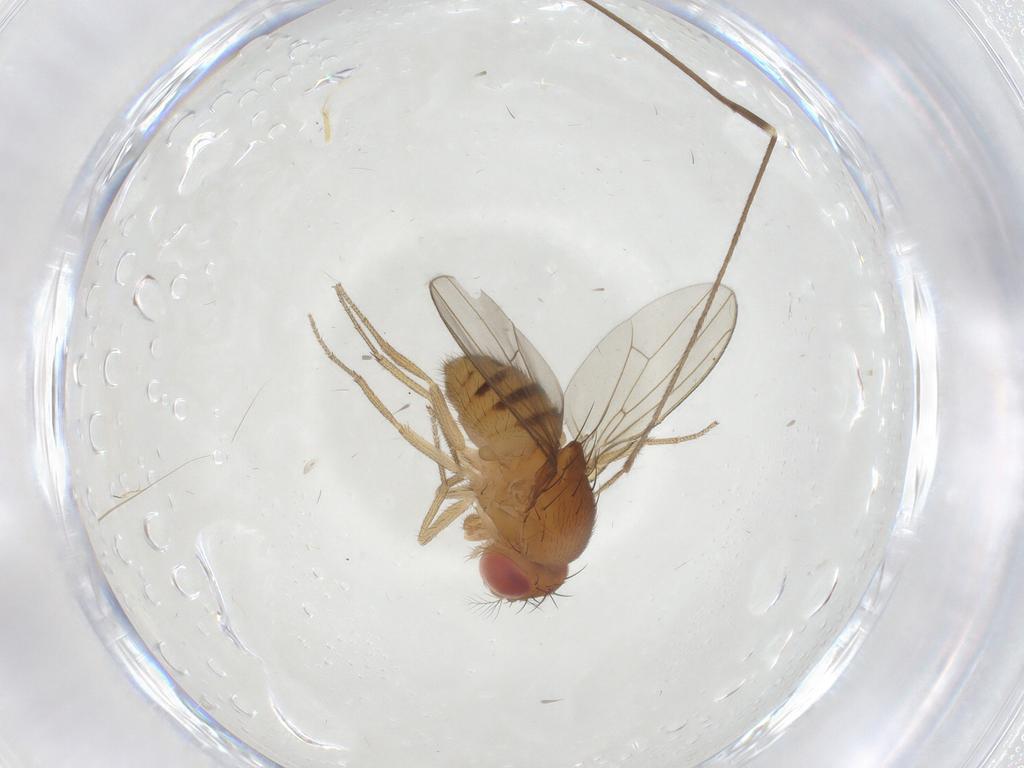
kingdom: Animalia
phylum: Arthropoda
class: Insecta
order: Diptera
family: Drosophilidae
